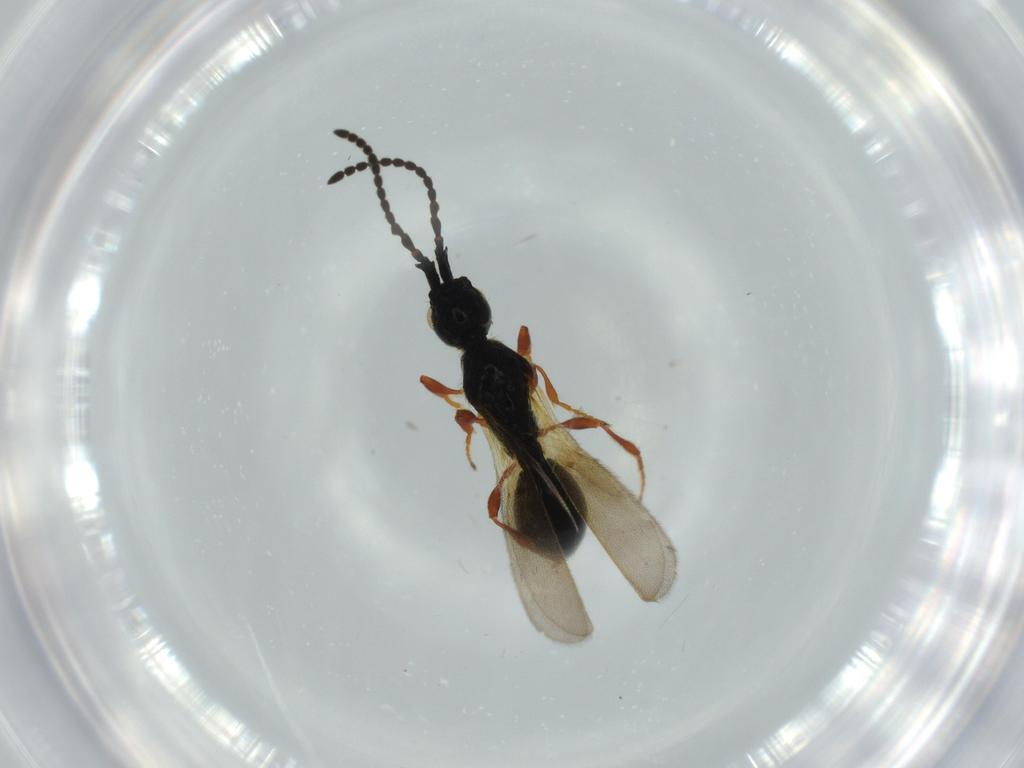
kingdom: Animalia
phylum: Arthropoda
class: Insecta
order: Hymenoptera
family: Diapriidae
